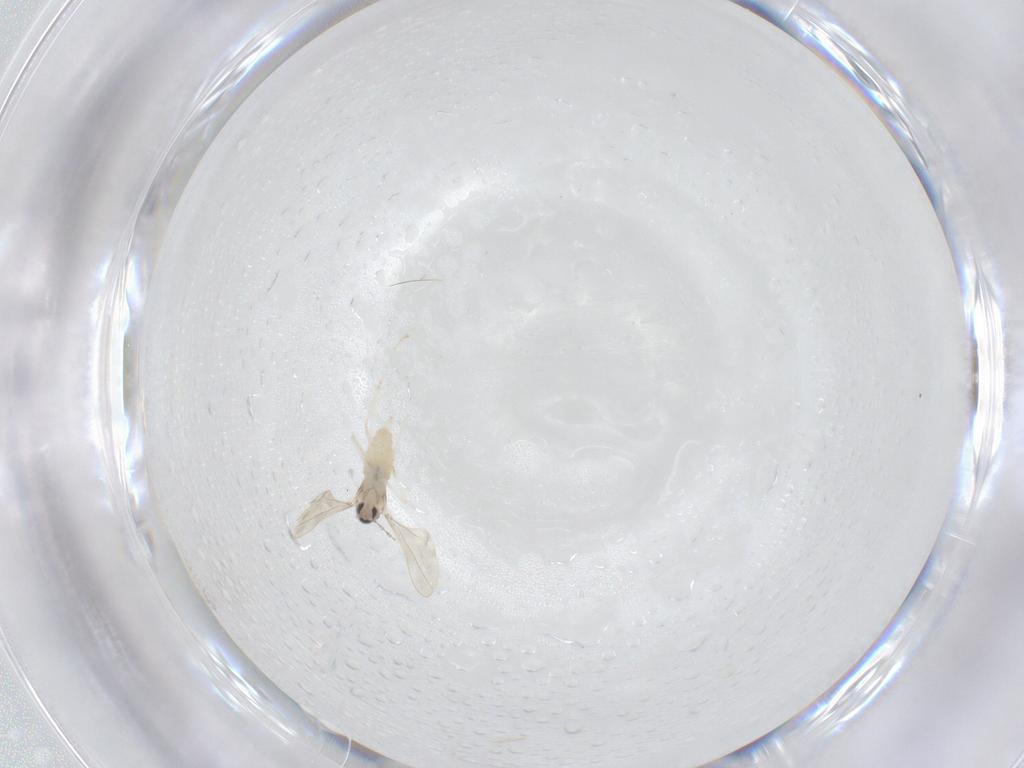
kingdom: Animalia
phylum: Arthropoda
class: Insecta
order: Diptera
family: Cecidomyiidae
